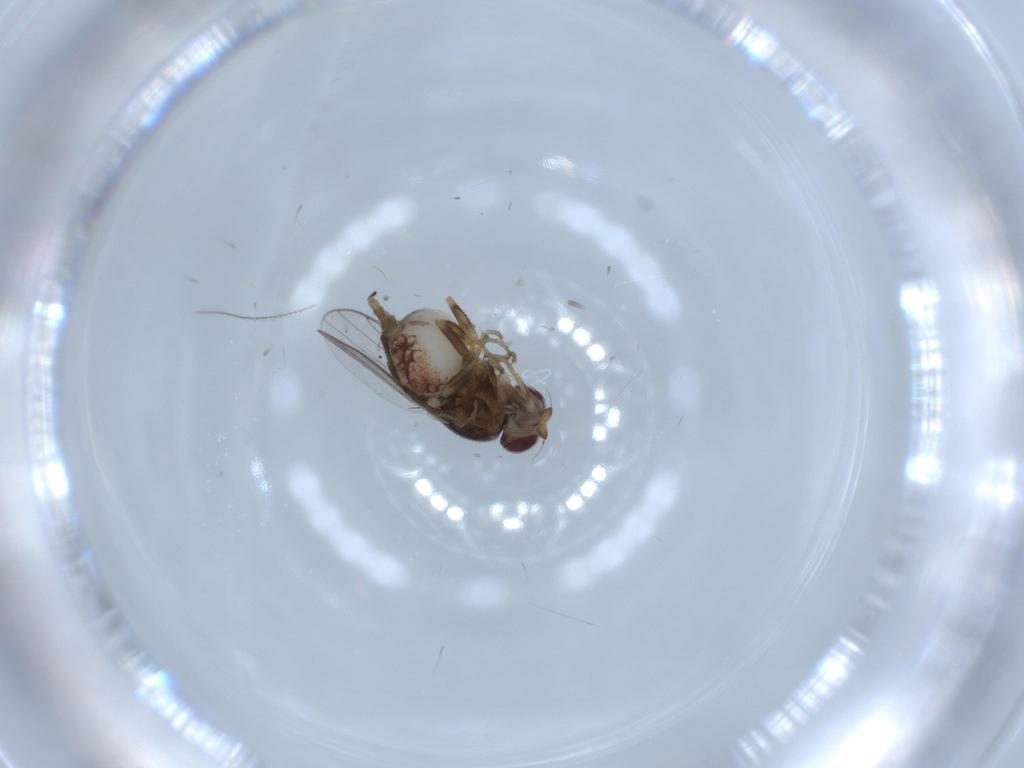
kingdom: Animalia
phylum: Arthropoda
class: Insecta
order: Diptera
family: Chloropidae
